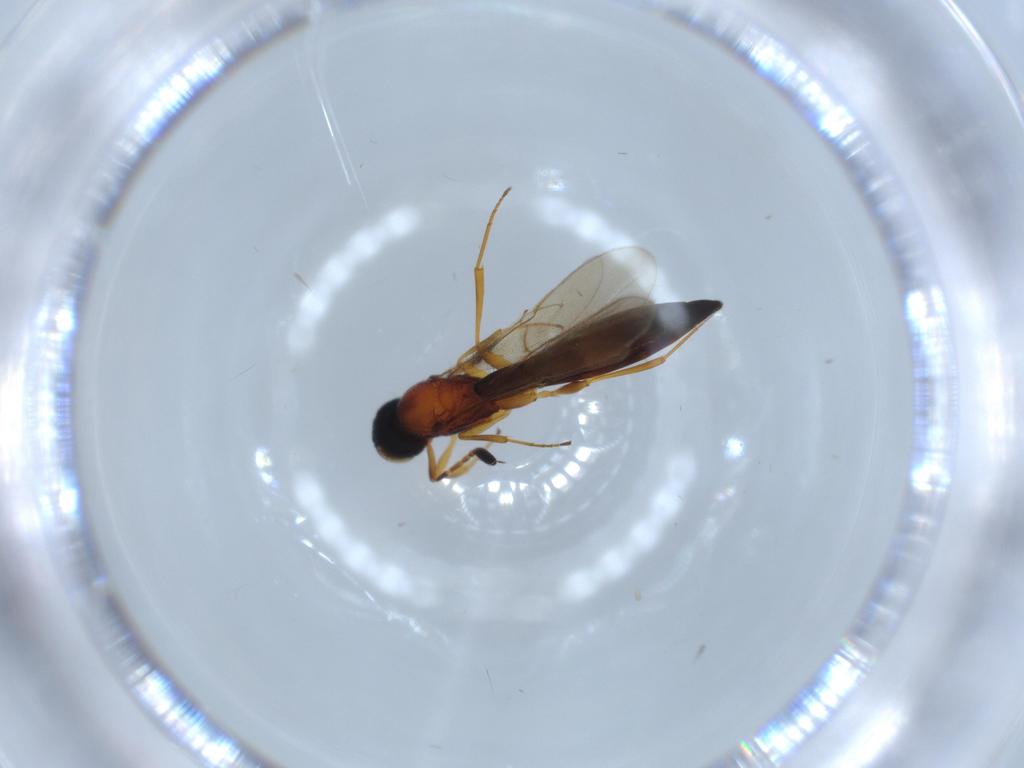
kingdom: Animalia
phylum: Arthropoda
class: Insecta
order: Hymenoptera
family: Scelionidae
